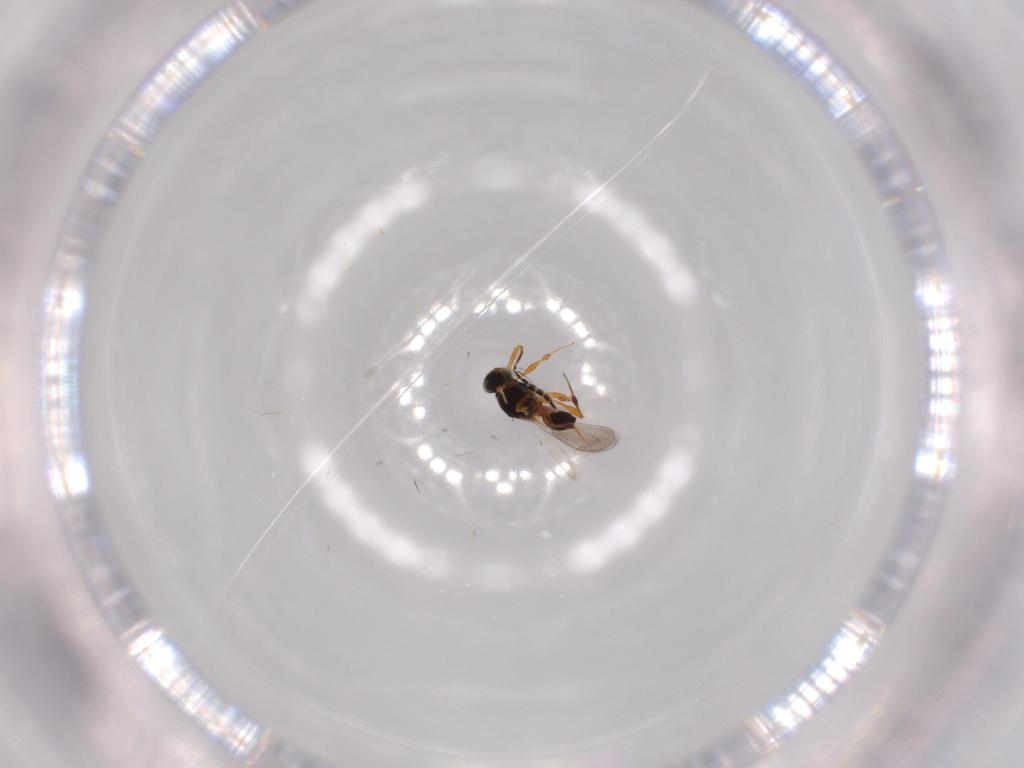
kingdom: Animalia
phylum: Arthropoda
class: Insecta
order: Hymenoptera
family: Platygastridae
